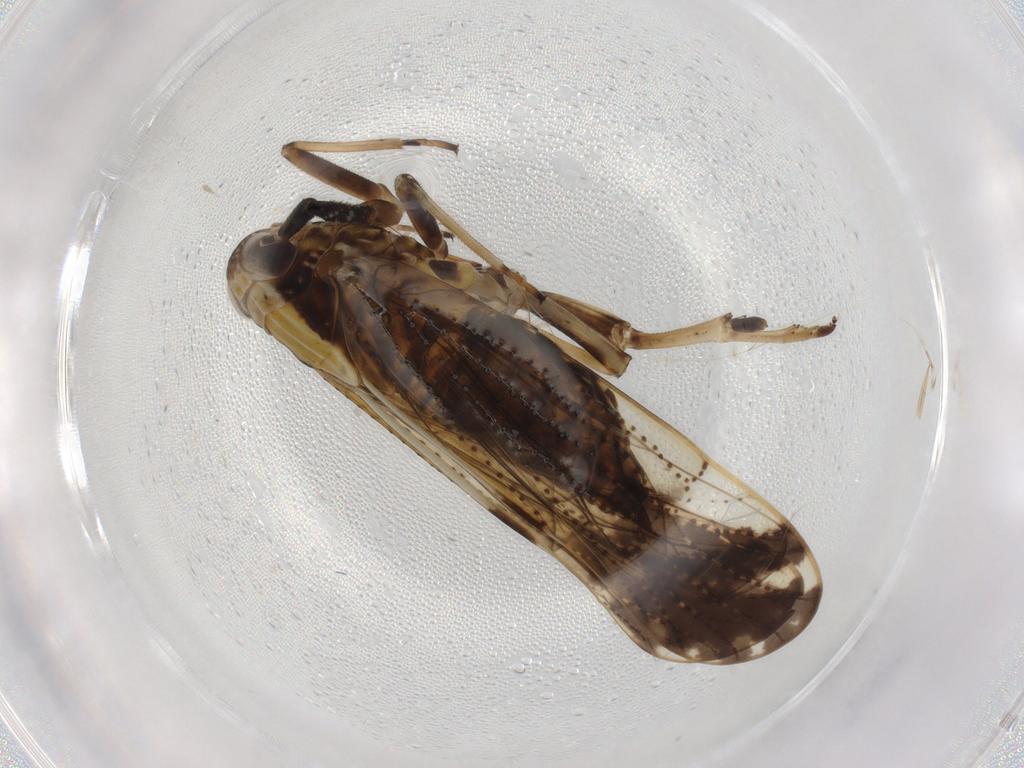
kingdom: Animalia
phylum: Arthropoda
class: Insecta
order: Hemiptera
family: Delphacidae
